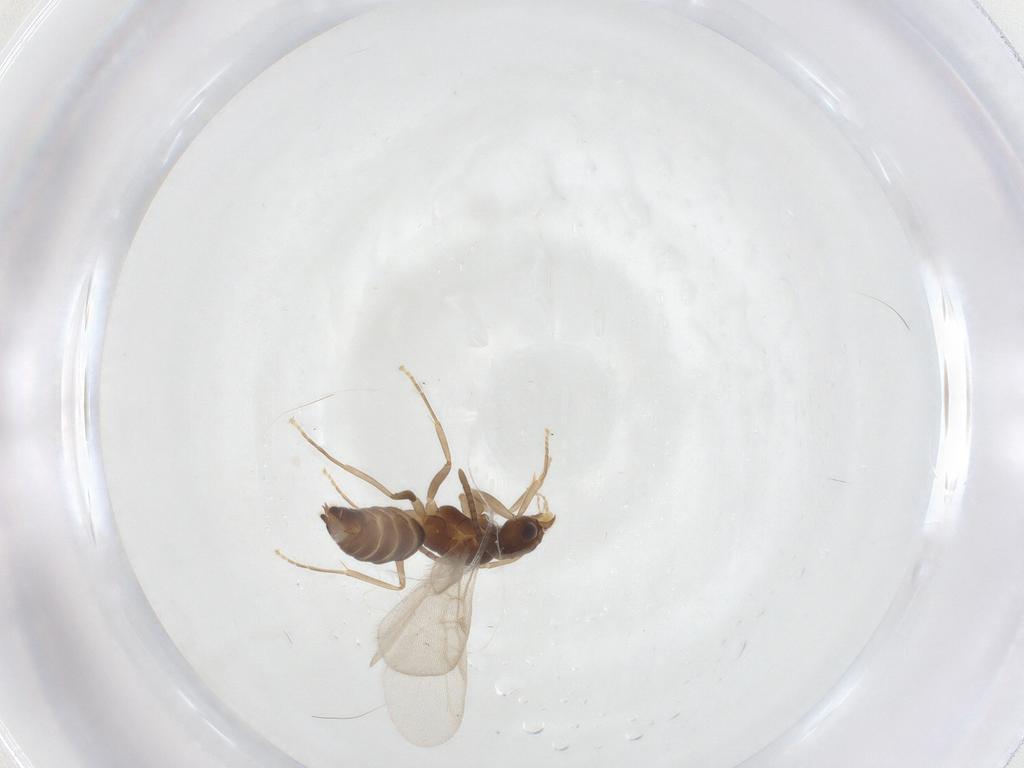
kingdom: Animalia
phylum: Arthropoda
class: Insecta
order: Hymenoptera
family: Formicidae
